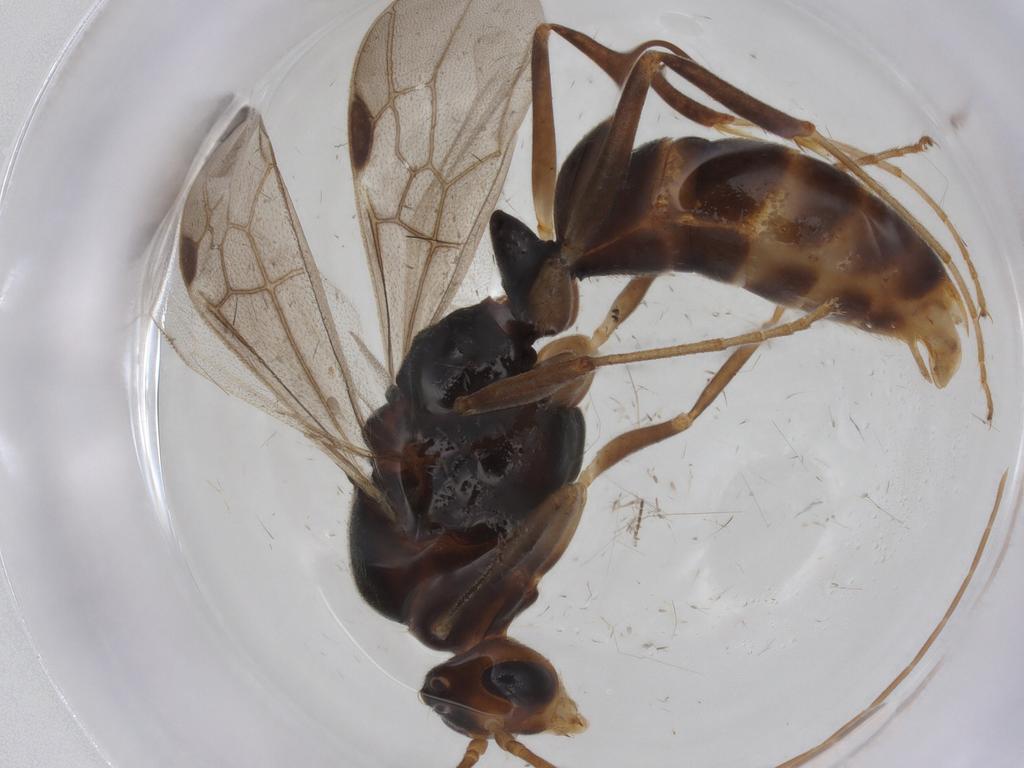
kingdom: Animalia
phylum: Arthropoda
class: Insecta
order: Hymenoptera
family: Formicidae
